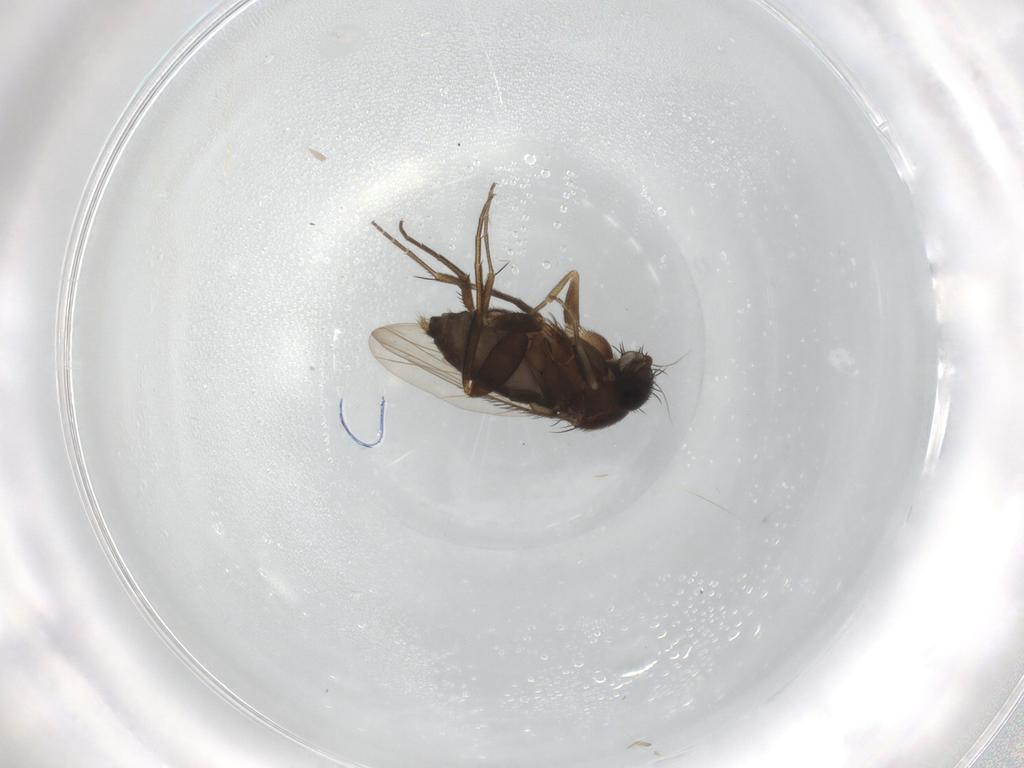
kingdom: Animalia
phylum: Arthropoda
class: Insecta
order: Diptera
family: Phoridae
